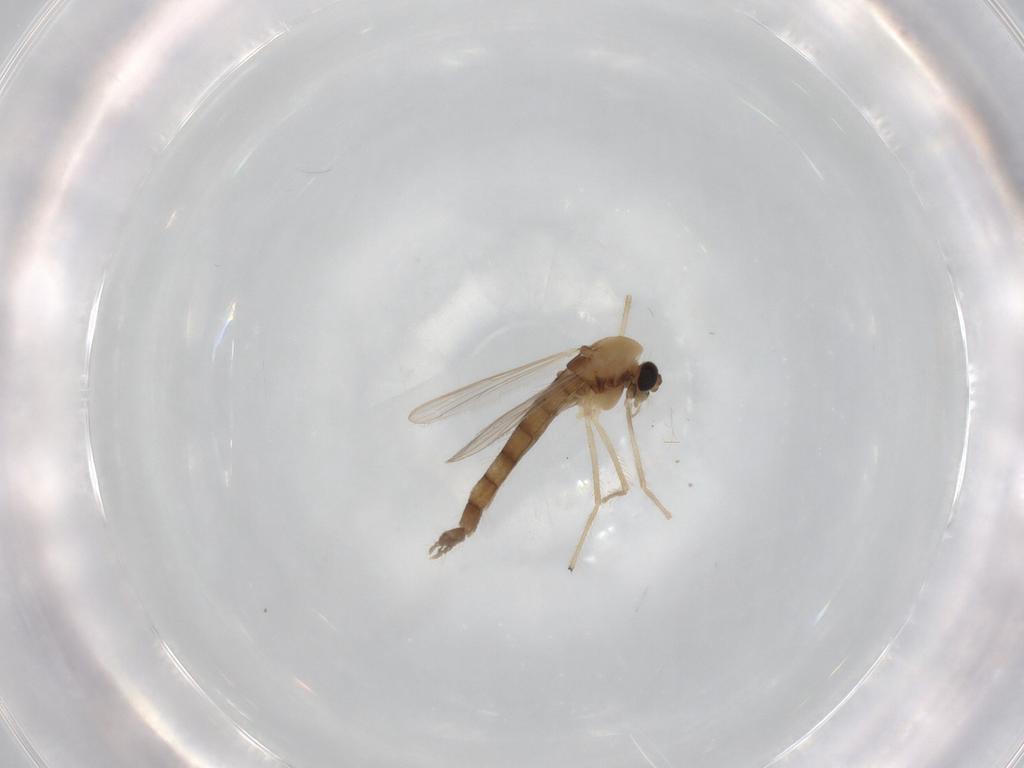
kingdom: Animalia
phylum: Arthropoda
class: Insecta
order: Diptera
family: Chironomidae
